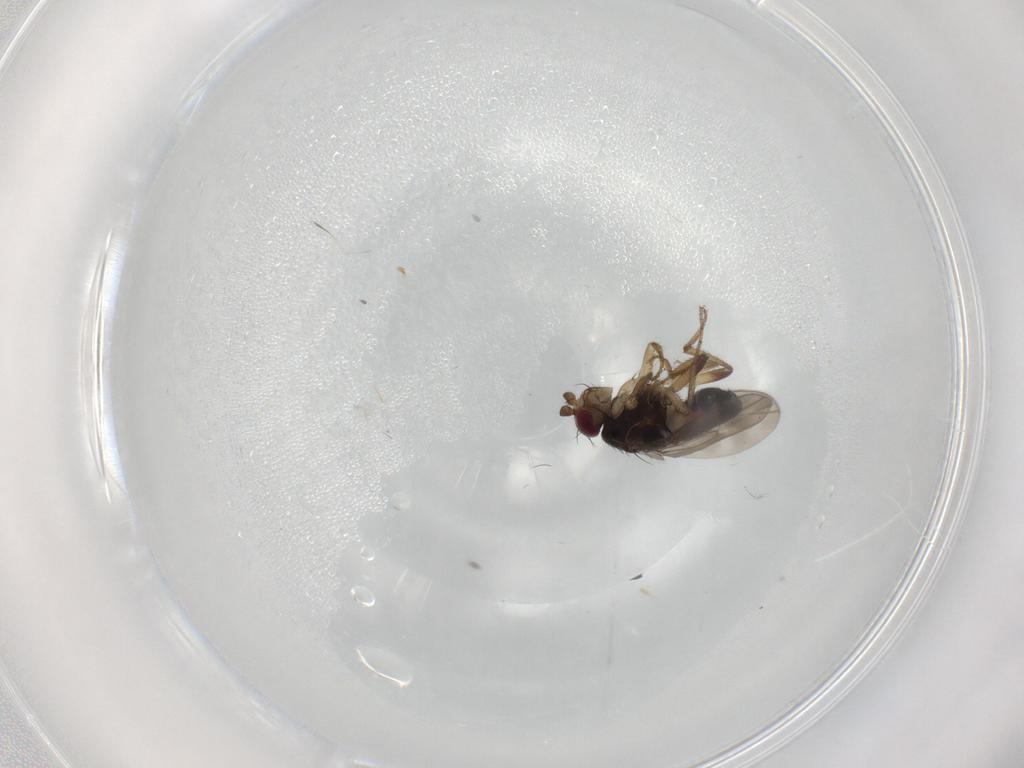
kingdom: Animalia
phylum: Arthropoda
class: Insecta
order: Diptera
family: Sphaeroceridae
